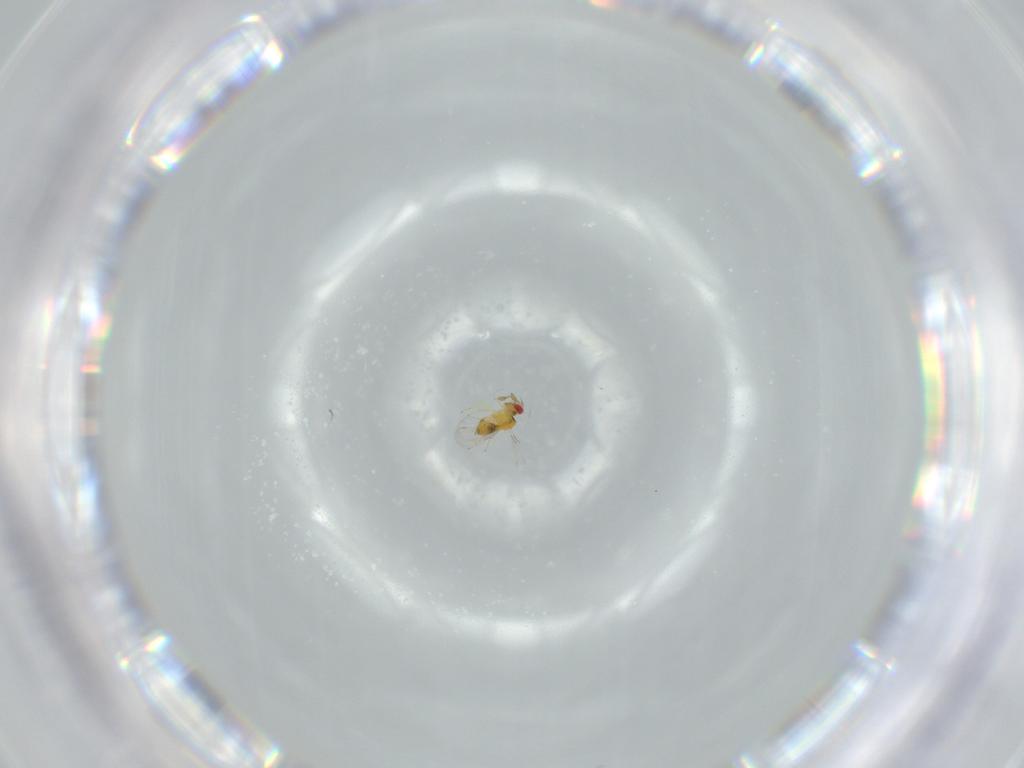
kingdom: Animalia
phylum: Arthropoda
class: Insecta
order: Hymenoptera
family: Trichogrammatidae
